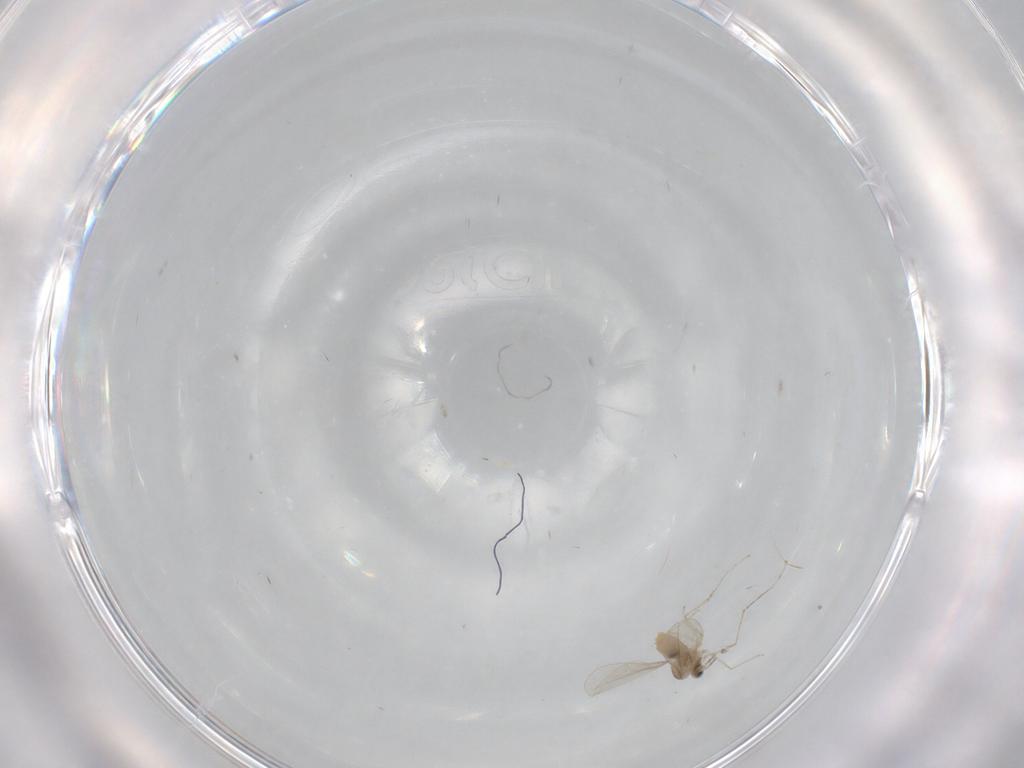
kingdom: Animalia
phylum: Arthropoda
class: Insecta
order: Diptera
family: Cecidomyiidae
